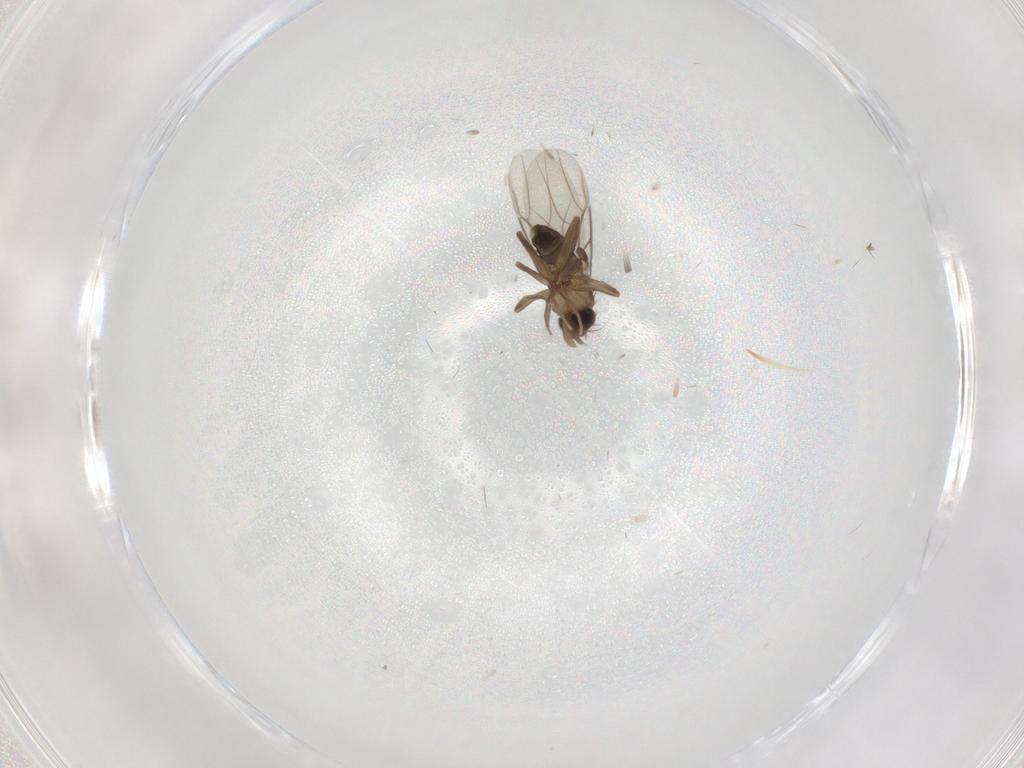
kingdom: Animalia
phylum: Arthropoda
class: Insecta
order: Diptera
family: Phoridae
